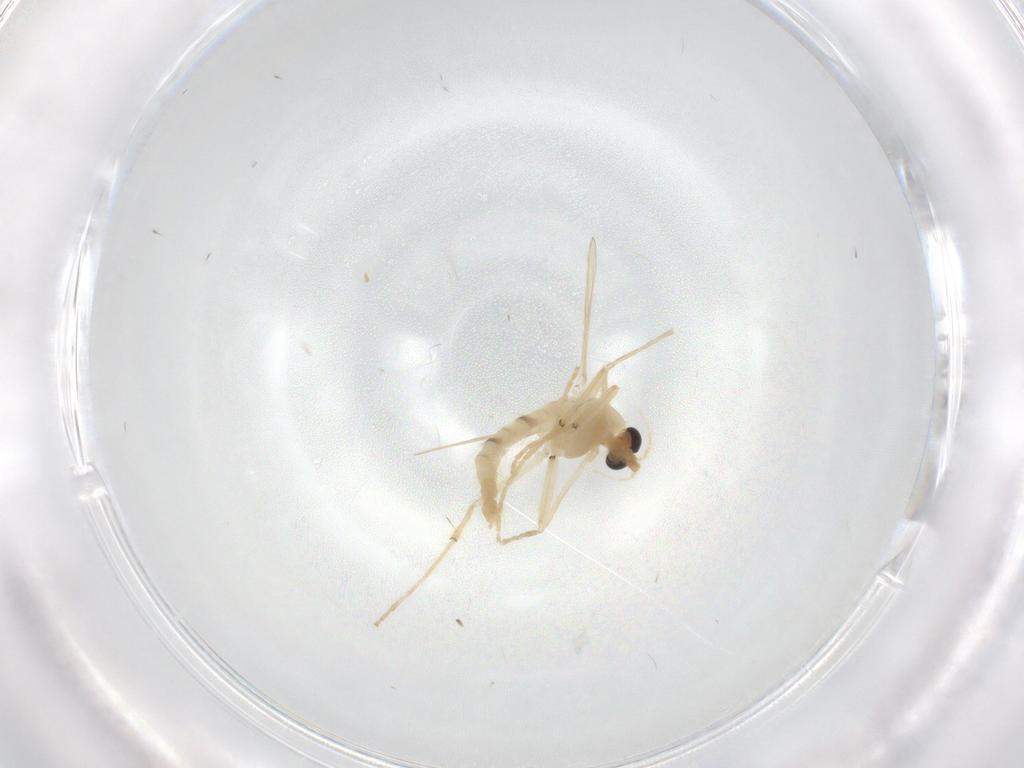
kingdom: Animalia
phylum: Arthropoda
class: Insecta
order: Diptera
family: Chironomidae
